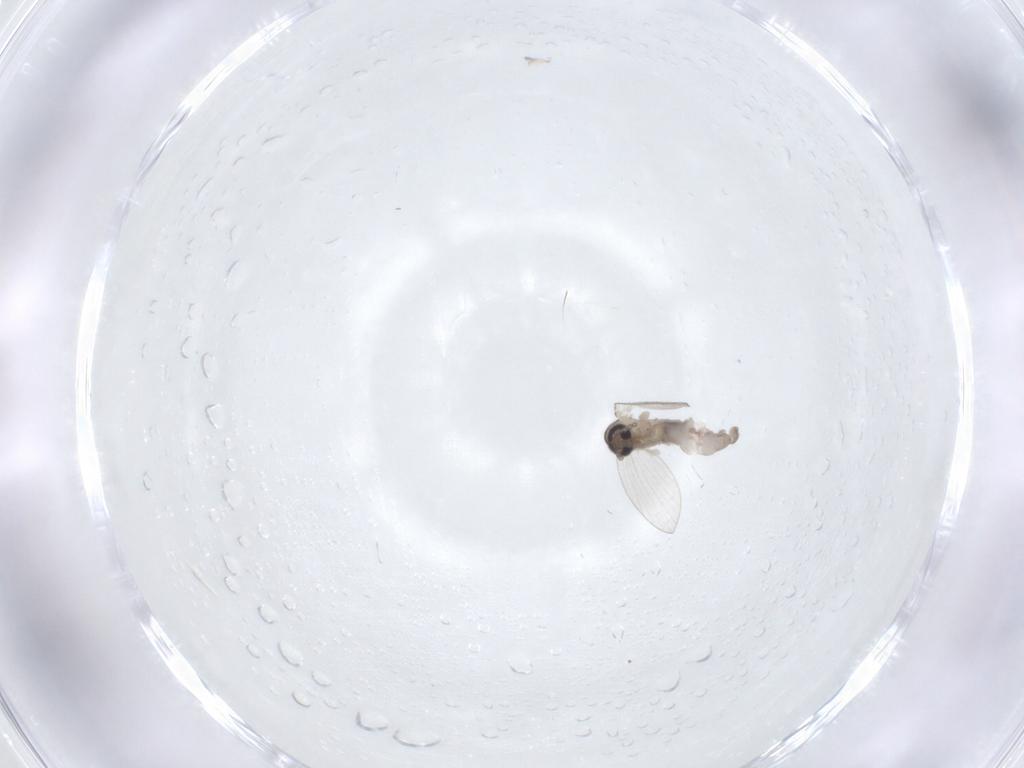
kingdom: Animalia
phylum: Arthropoda
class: Insecta
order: Diptera
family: Psychodidae
